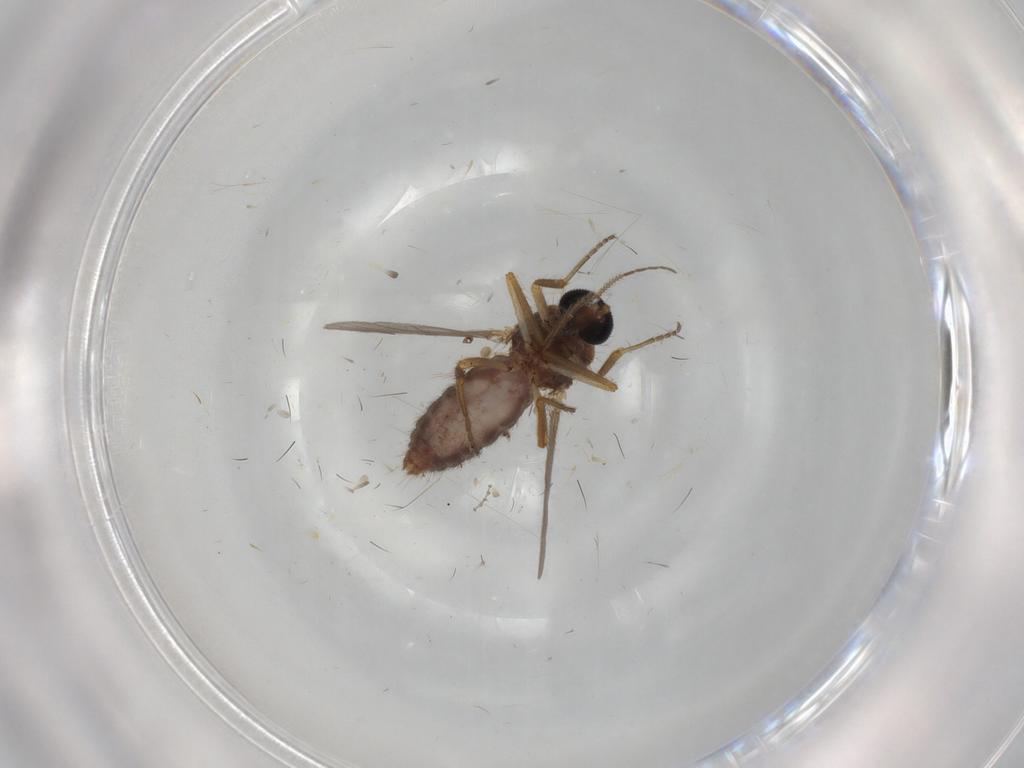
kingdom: Animalia
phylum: Arthropoda
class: Insecta
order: Diptera
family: Ceratopogonidae
